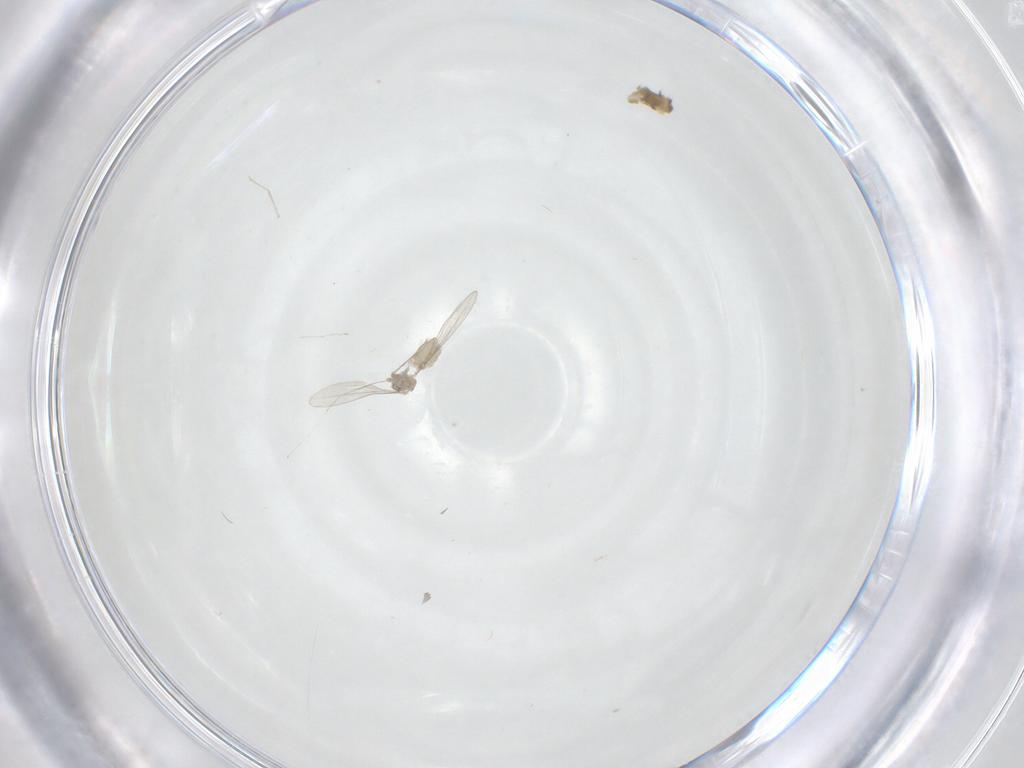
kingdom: Animalia
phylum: Arthropoda
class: Insecta
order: Diptera
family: Cecidomyiidae
